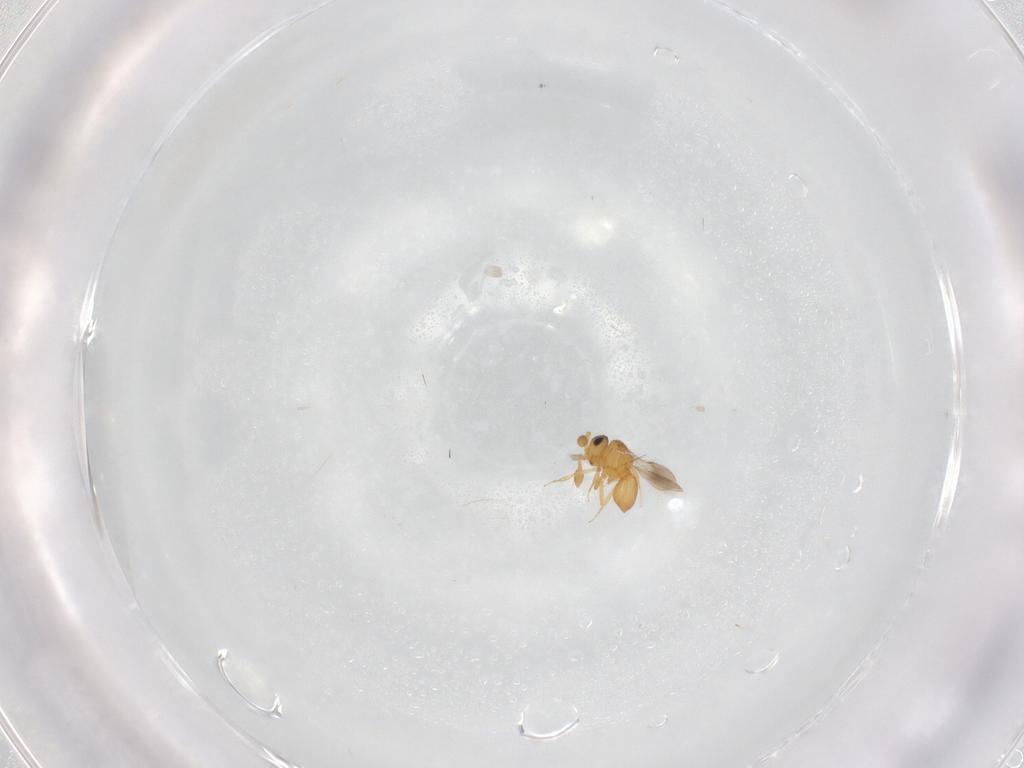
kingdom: Animalia
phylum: Arthropoda
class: Insecta
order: Hymenoptera
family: Scelionidae
